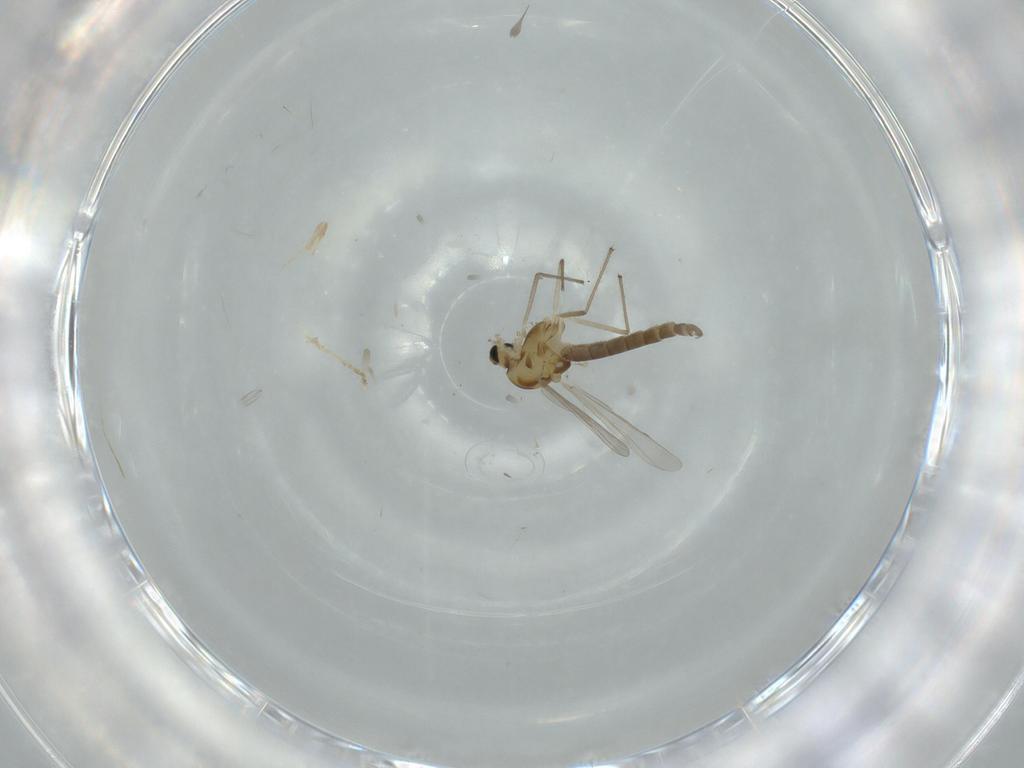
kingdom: Animalia
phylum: Arthropoda
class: Insecta
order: Diptera
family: Chironomidae
